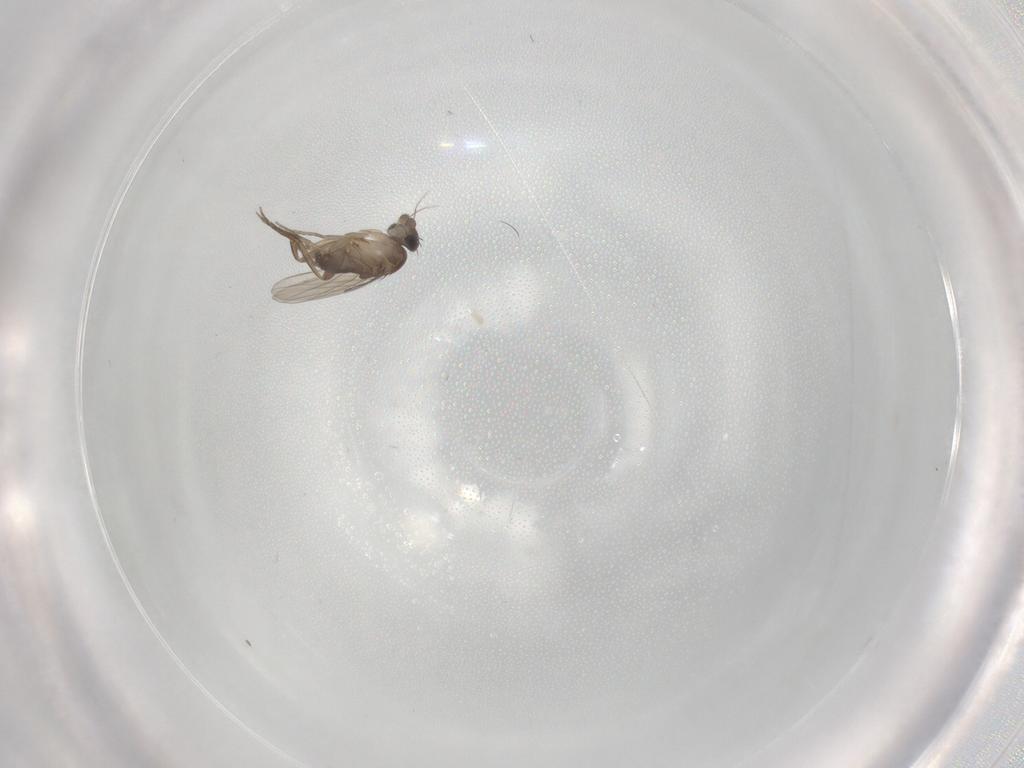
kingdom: Animalia
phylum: Arthropoda
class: Insecta
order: Diptera
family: Phoridae
